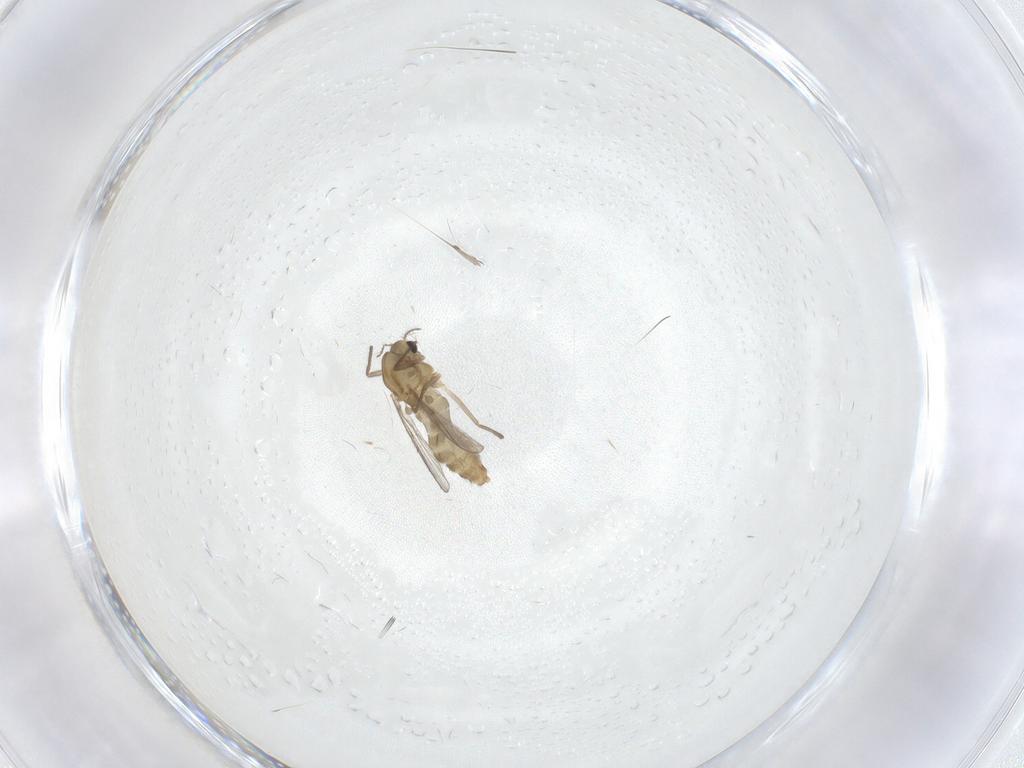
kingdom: Animalia
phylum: Arthropoda
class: Insecta
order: Diptera
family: Chironomidae
